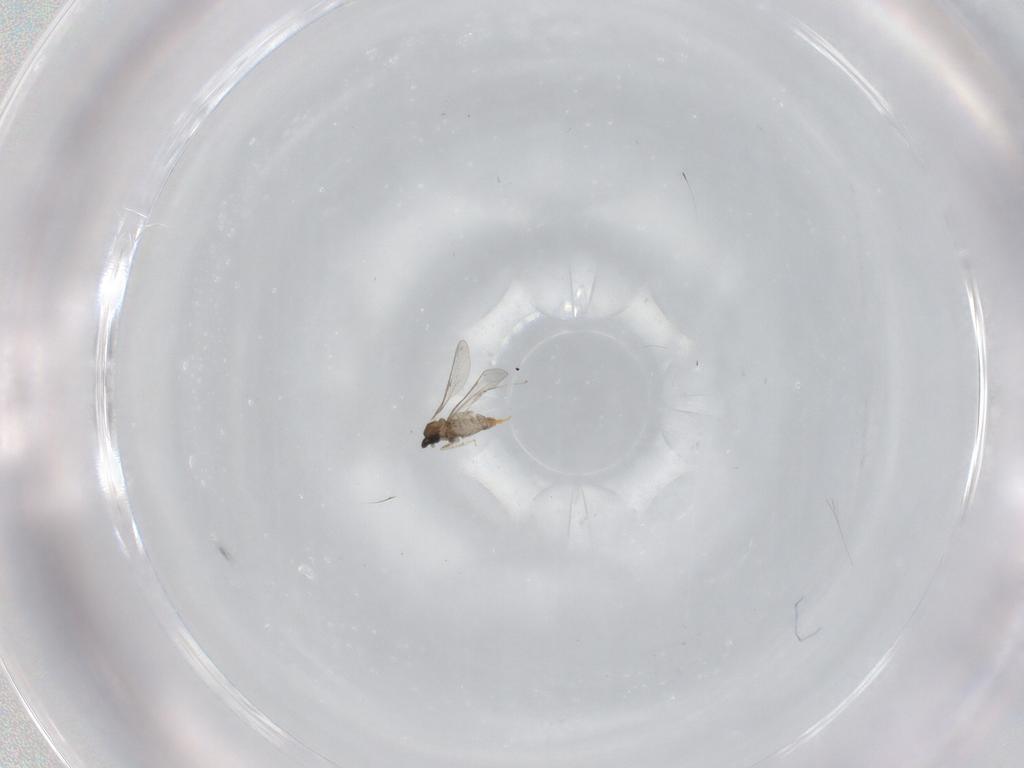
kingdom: Animalia
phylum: Arthropoda
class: Insecta
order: Diptera
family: Cecidomyiidae
